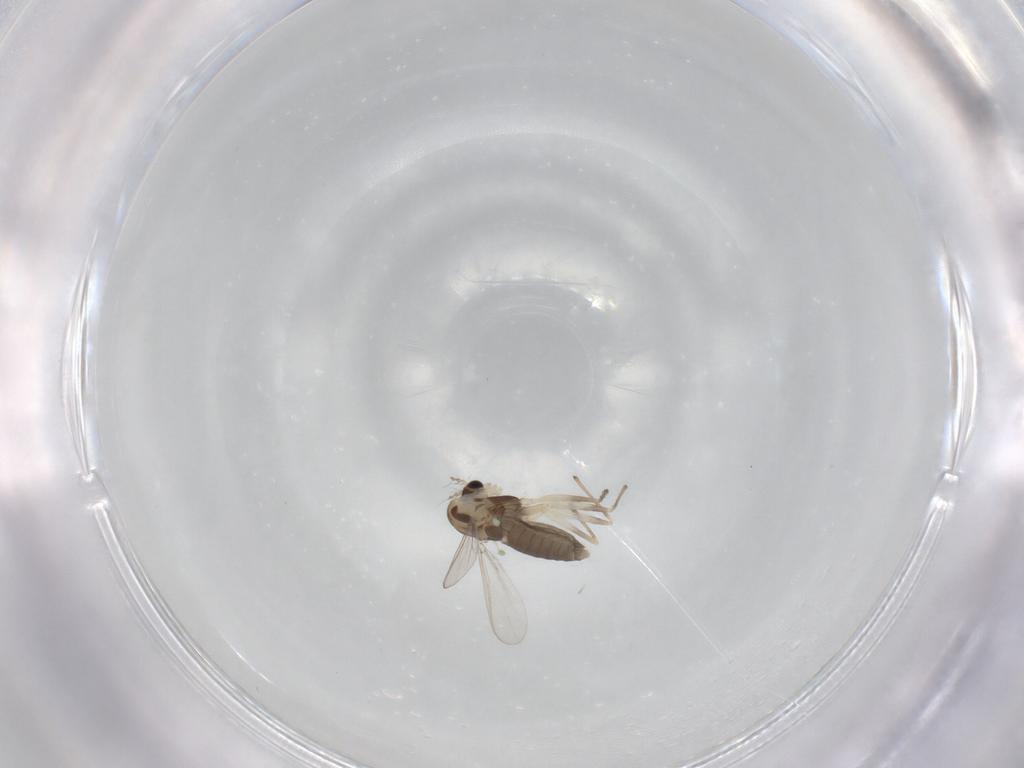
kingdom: Animalia
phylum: Arthropoda
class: Insecta
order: Diptera
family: Chironomidae
